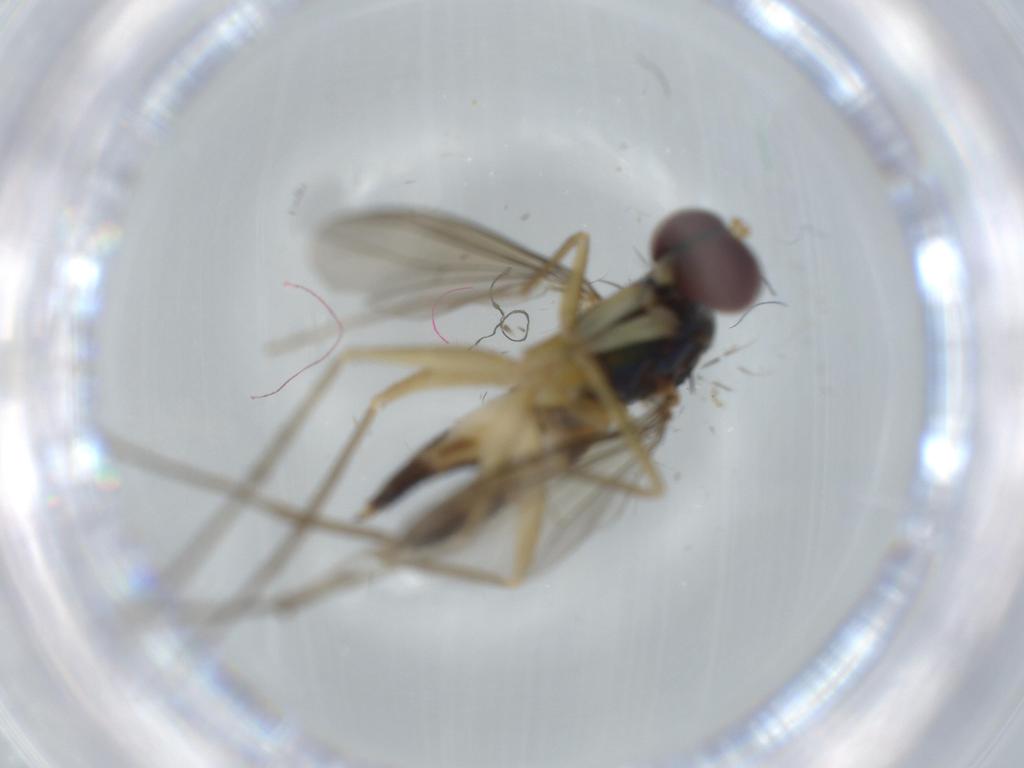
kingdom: Animalia
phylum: Arthropoda
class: Insecta
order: Diptera
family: Dolichopodidae
